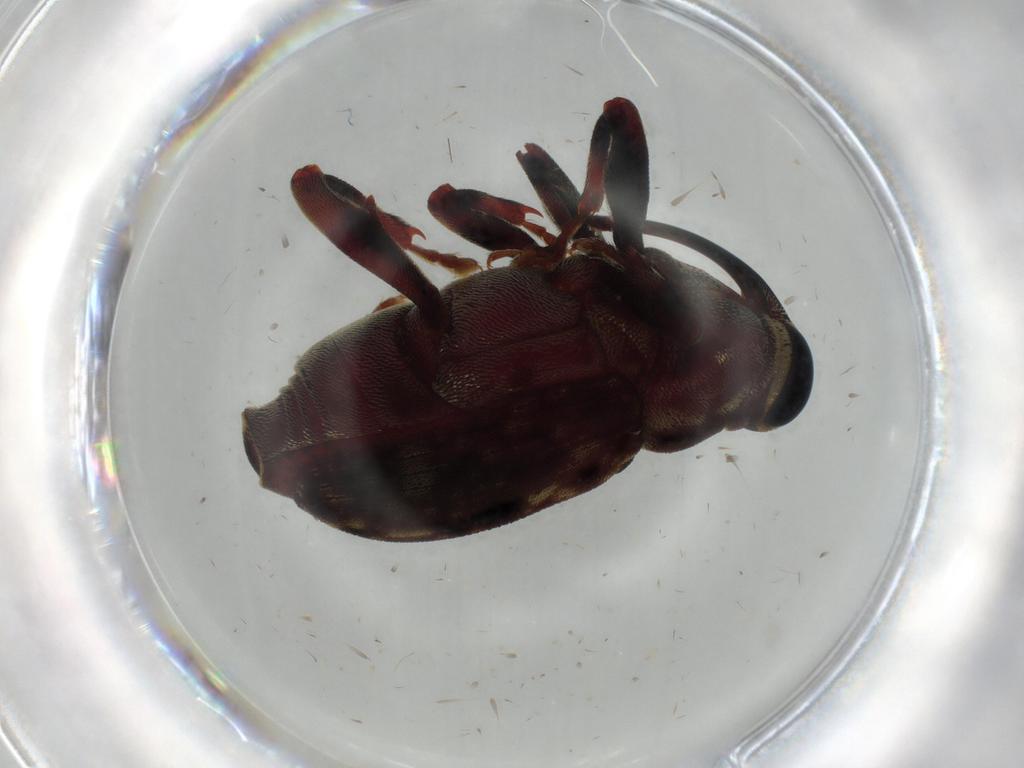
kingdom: Animalia
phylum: Arthropoda
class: Insecta
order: Coleoptera
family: Curculionidae
